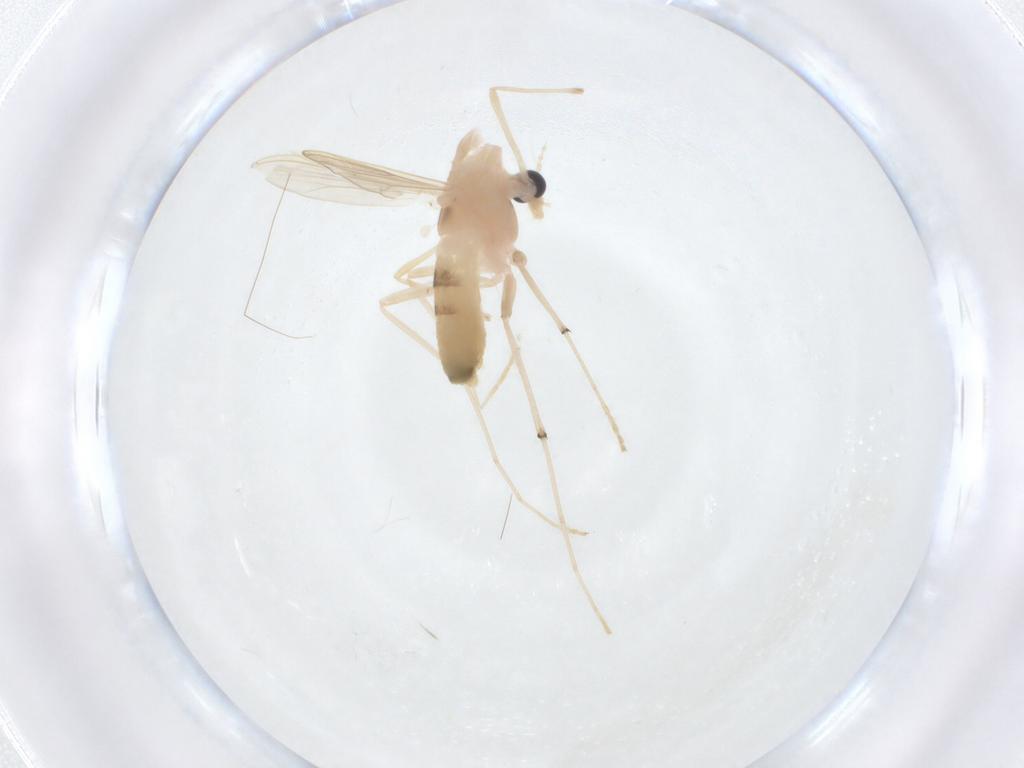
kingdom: Animalia
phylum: Arthropoda
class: Insecta
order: Diptera
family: Chironomidae
